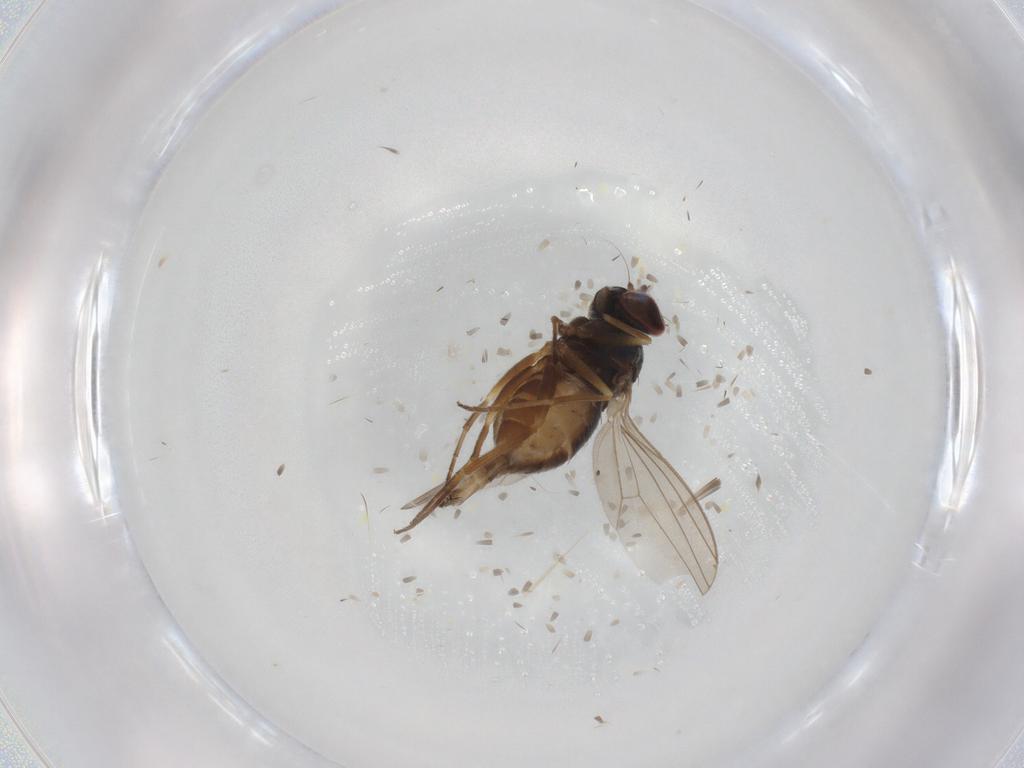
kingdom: Animalia
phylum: Arthropoda
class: Insecta
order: Diptera
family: Dolichopodidae
